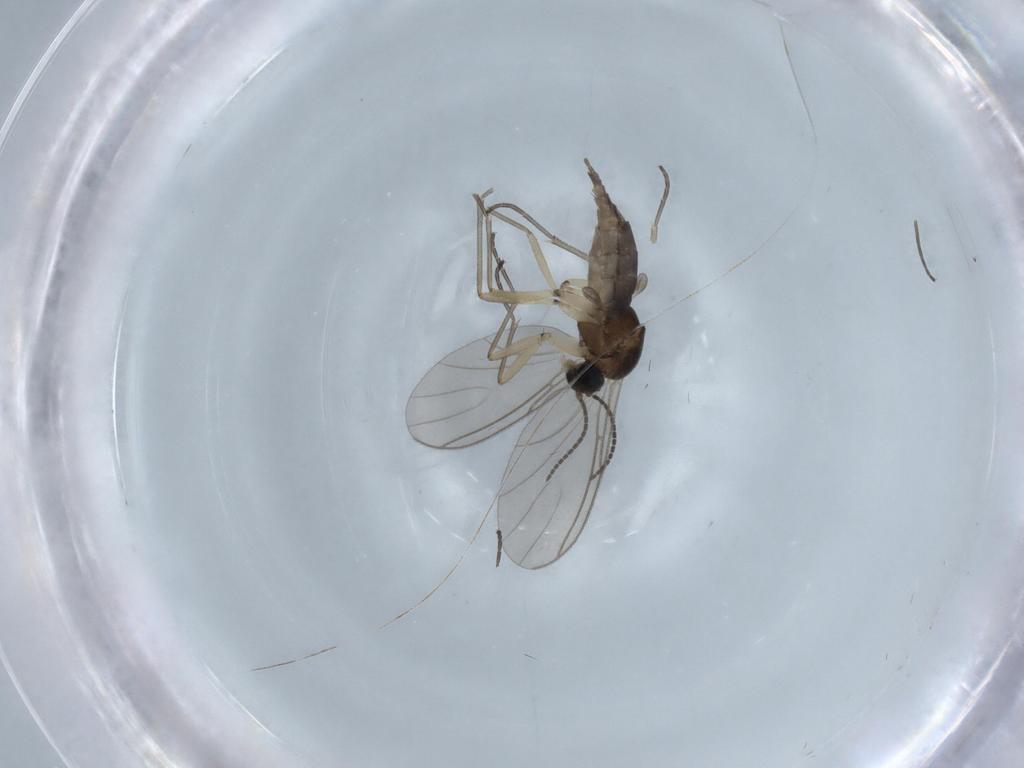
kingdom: Animalia
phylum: Arthropoda
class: Insecta
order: Diptera
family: Sciaridae
